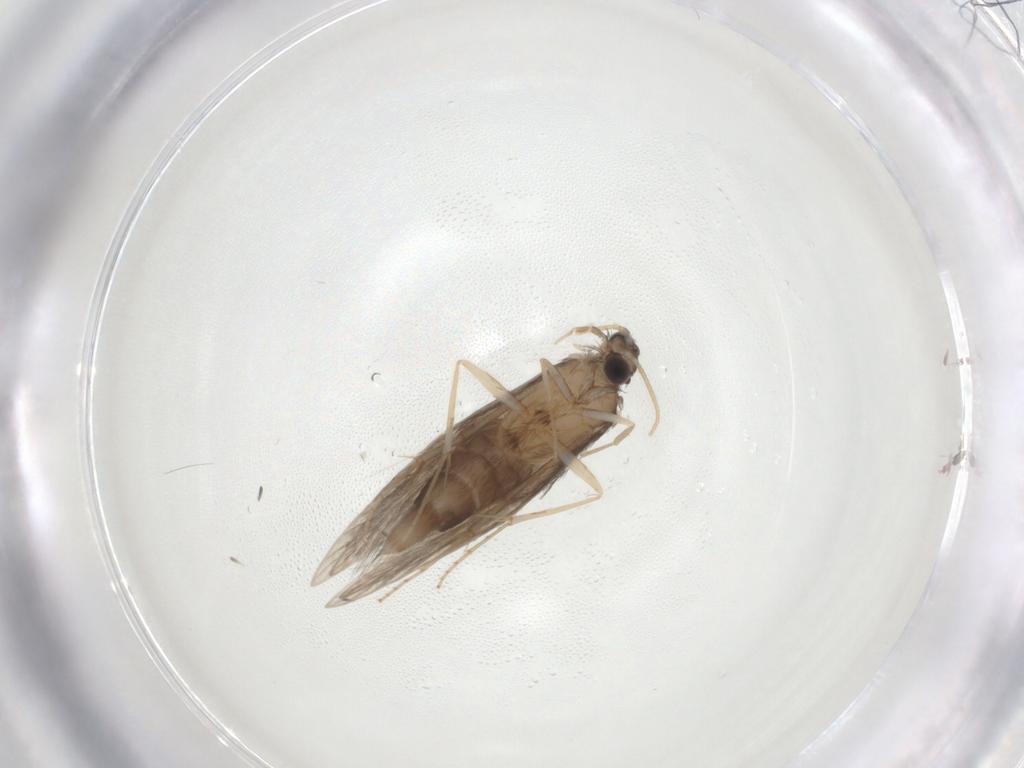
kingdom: Animalia
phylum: Arthropoda
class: Insecta
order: Trichoptera
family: Hydroptilidae
